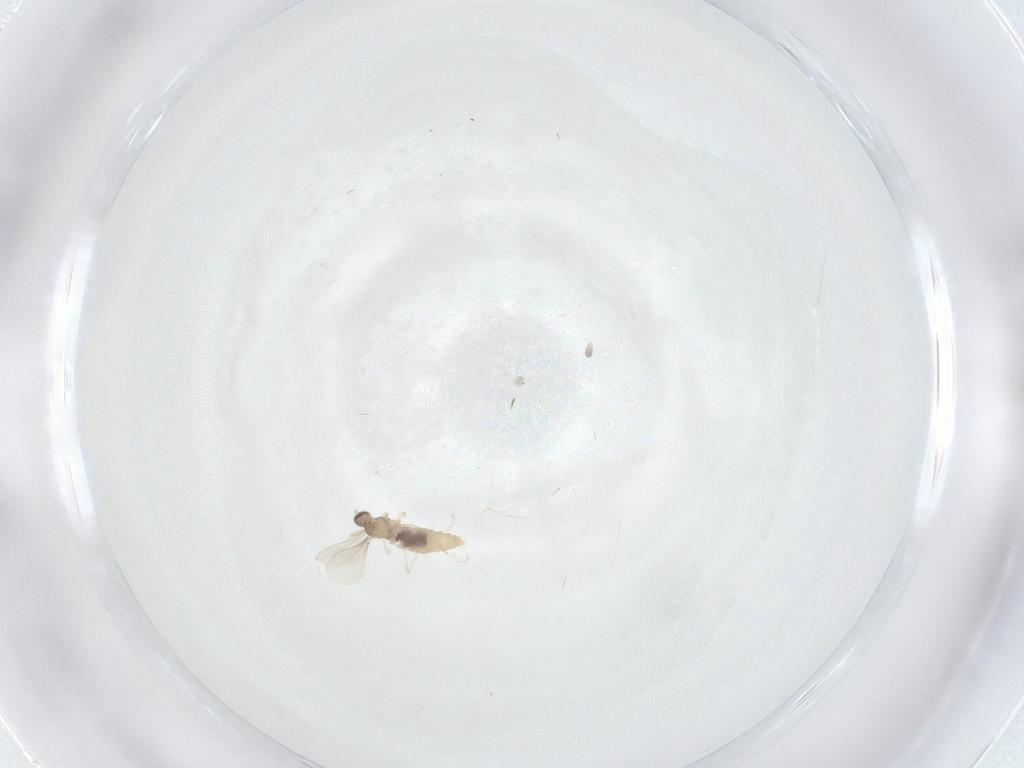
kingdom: Animalia
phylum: Arthropoda
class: Insecta
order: Diptera
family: Cecidomyiidae
